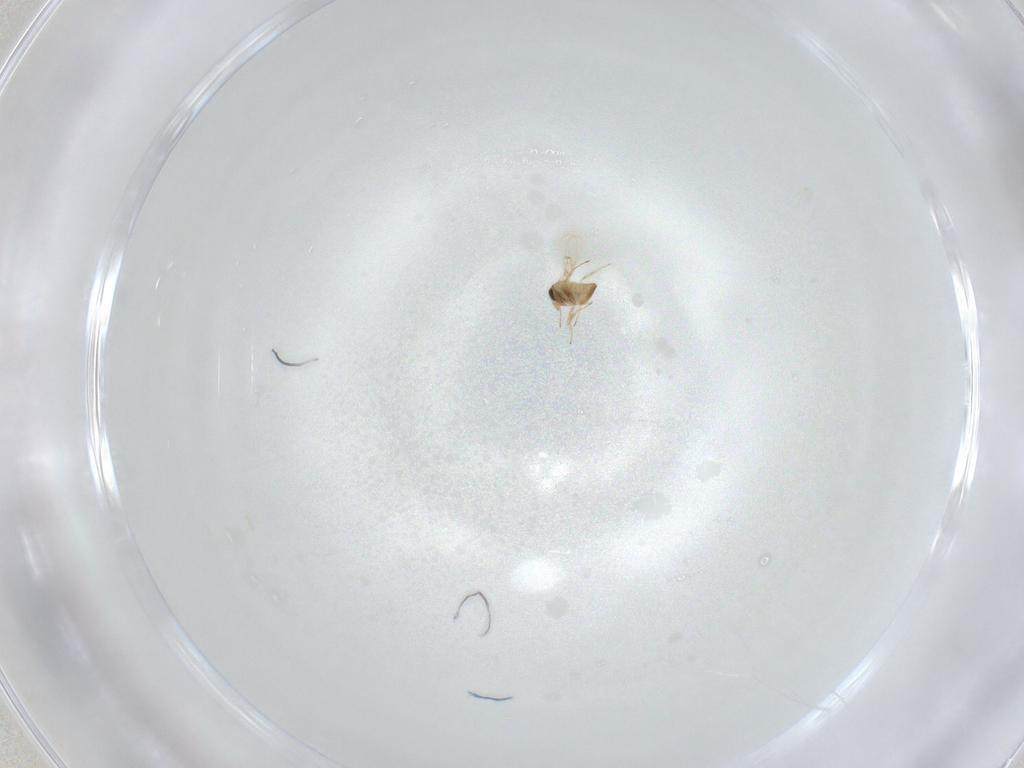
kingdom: Animalia
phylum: Arthropoda
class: Insecta
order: Hymenoptera
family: Trichogrammatidae
